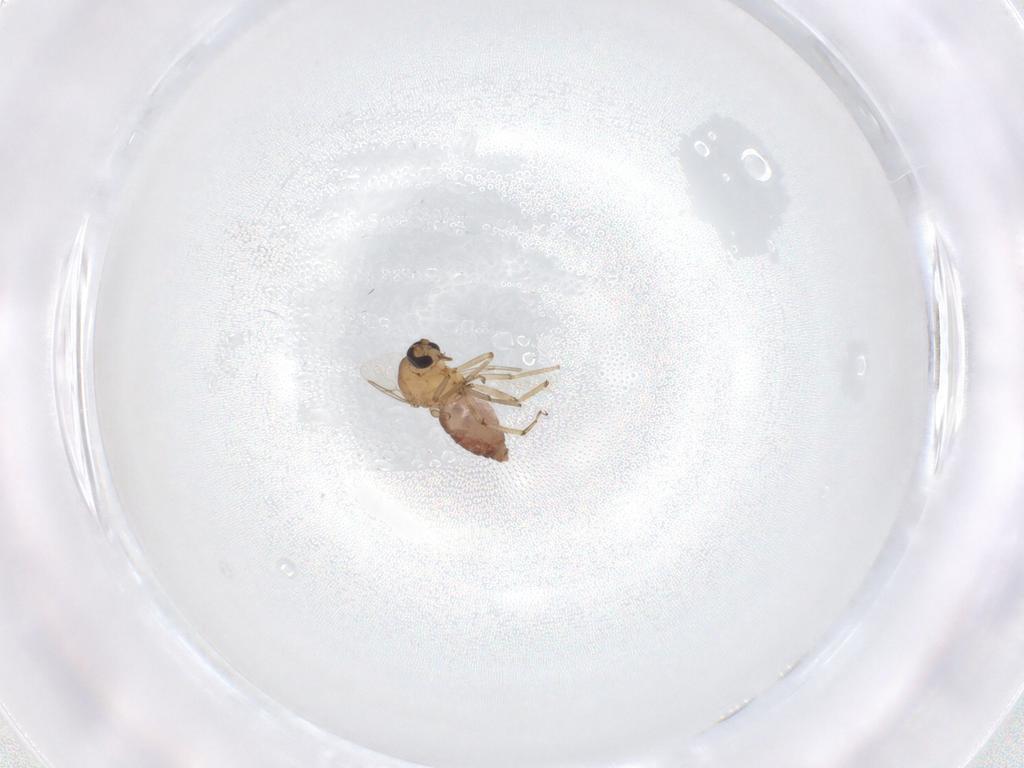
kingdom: Animalia
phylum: Arthropoda
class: Insecta
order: Diptera
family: Ceratopogonidae
